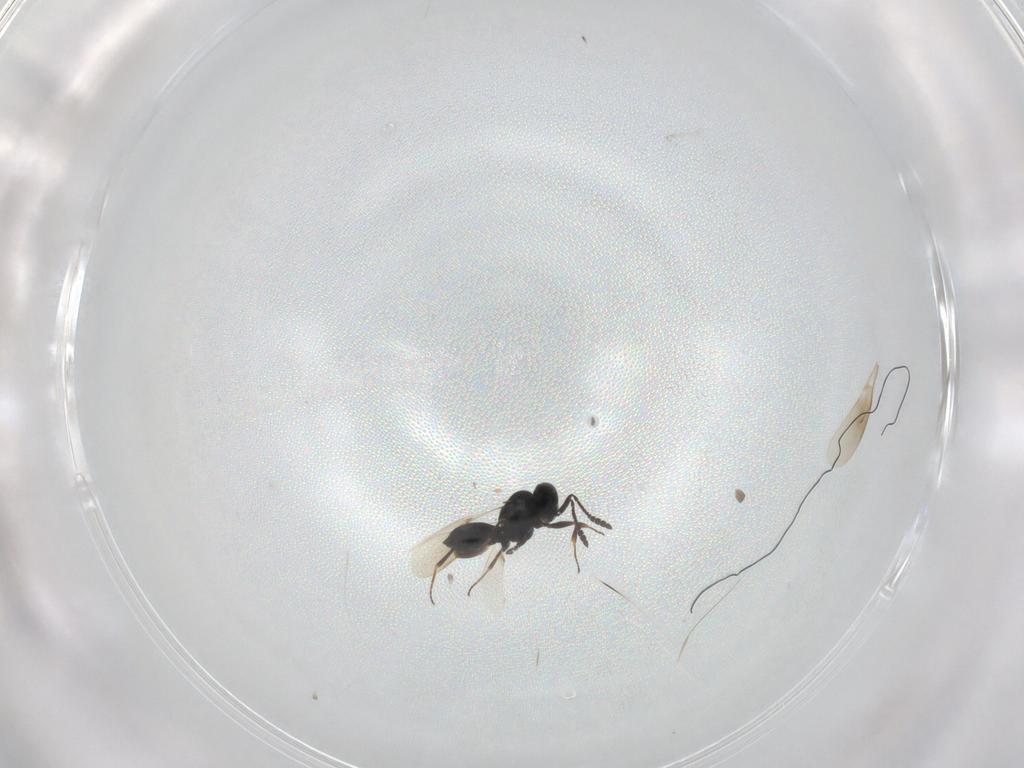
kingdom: Animalia
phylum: Arthropoda
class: Insecta
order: Hymenoptera
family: Scelionidae
